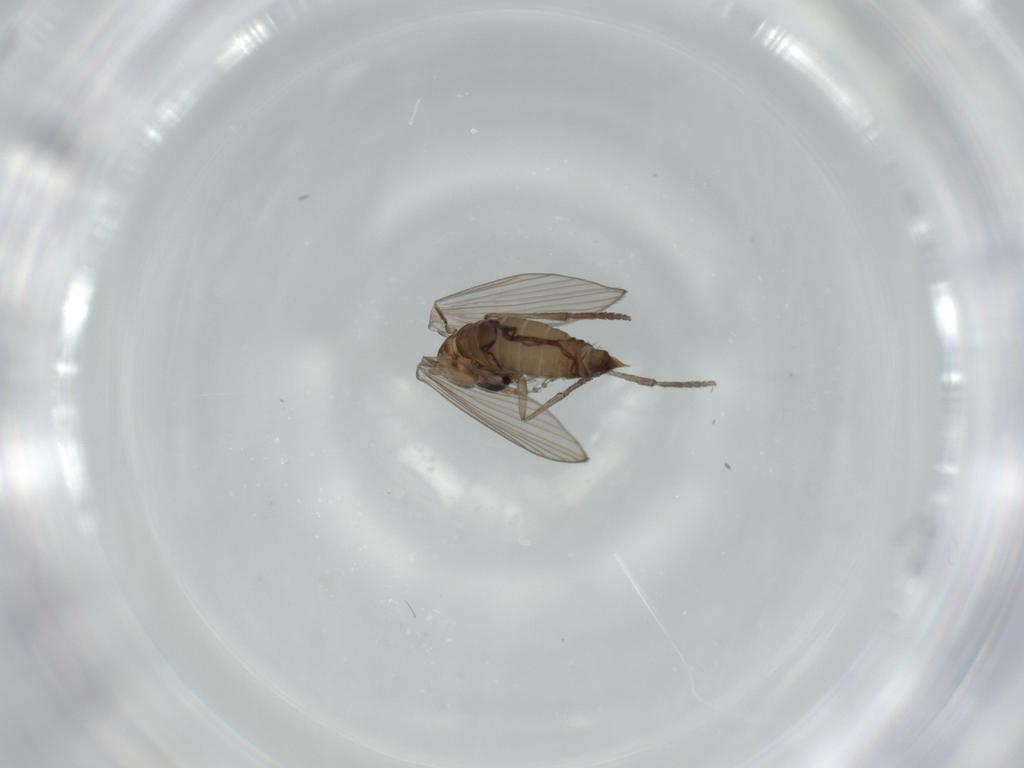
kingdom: Animalia
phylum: Arthropoda
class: Insecta
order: Diptera
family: Psychodidae
